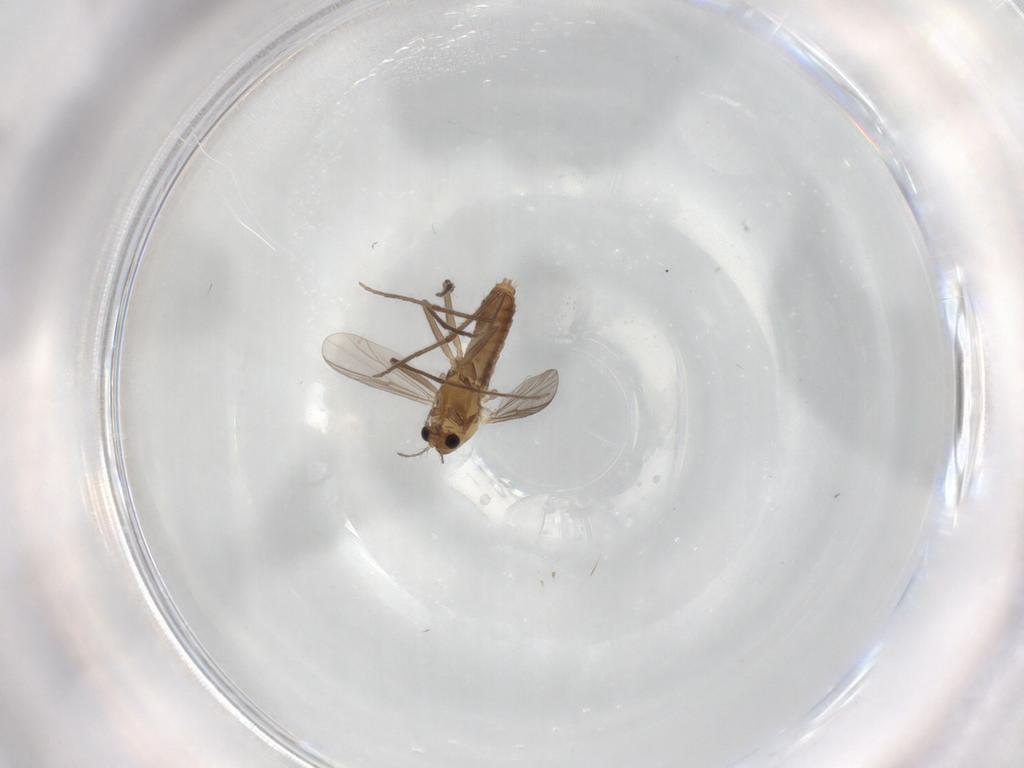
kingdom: Animalia
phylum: Arthropoda
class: Insecta
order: Diptera
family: Chironomidae
